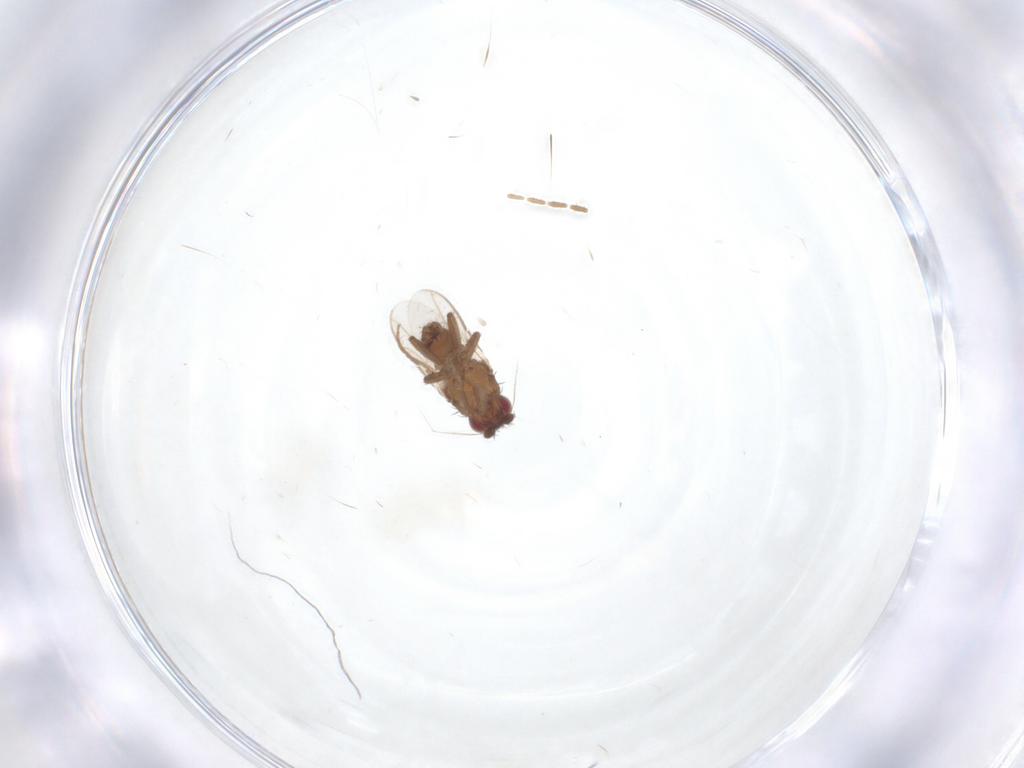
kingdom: Animalia
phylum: Arthropoda
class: Insecta
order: Diptera
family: Sphaeroceridae
